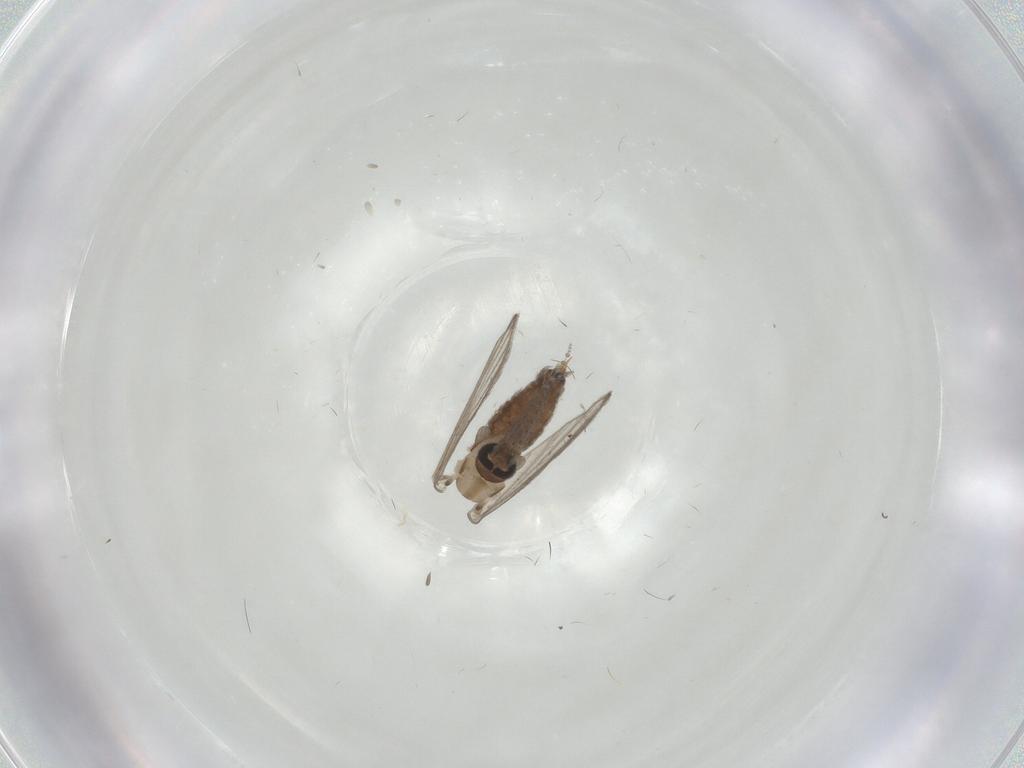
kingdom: Animalia
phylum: Arthropoda
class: Insecta
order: Diptera
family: Psychodidae
